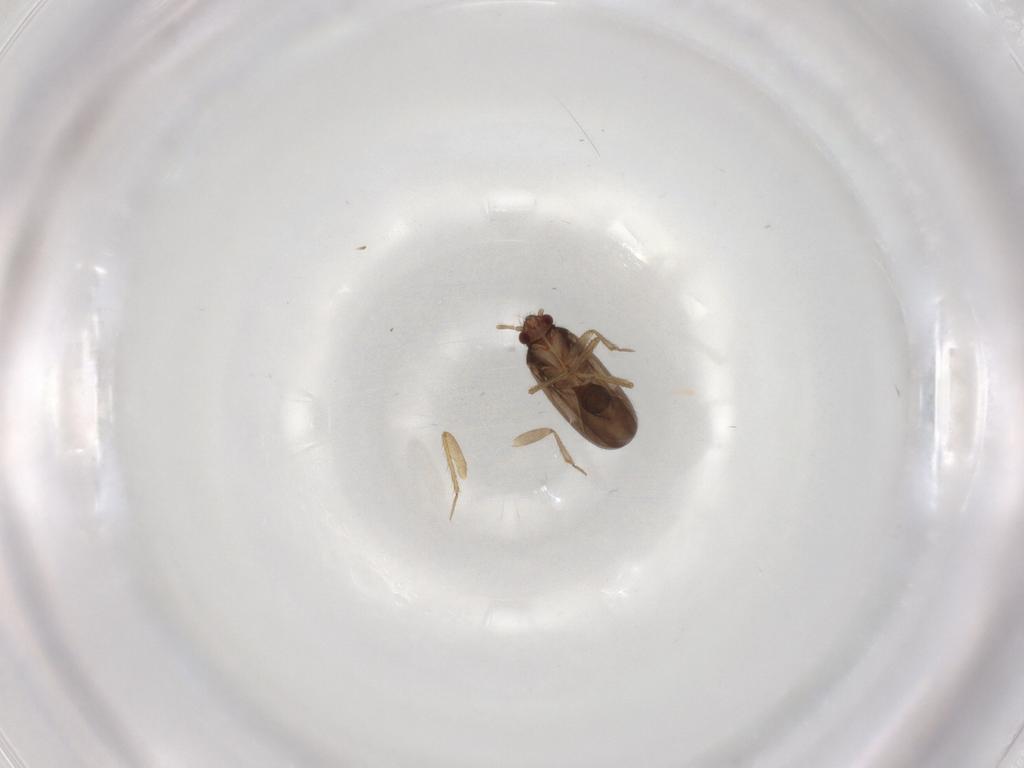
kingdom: Animalia
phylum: Arthropoda
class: Insecta
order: Hemiptera
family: Ceratocombidae
